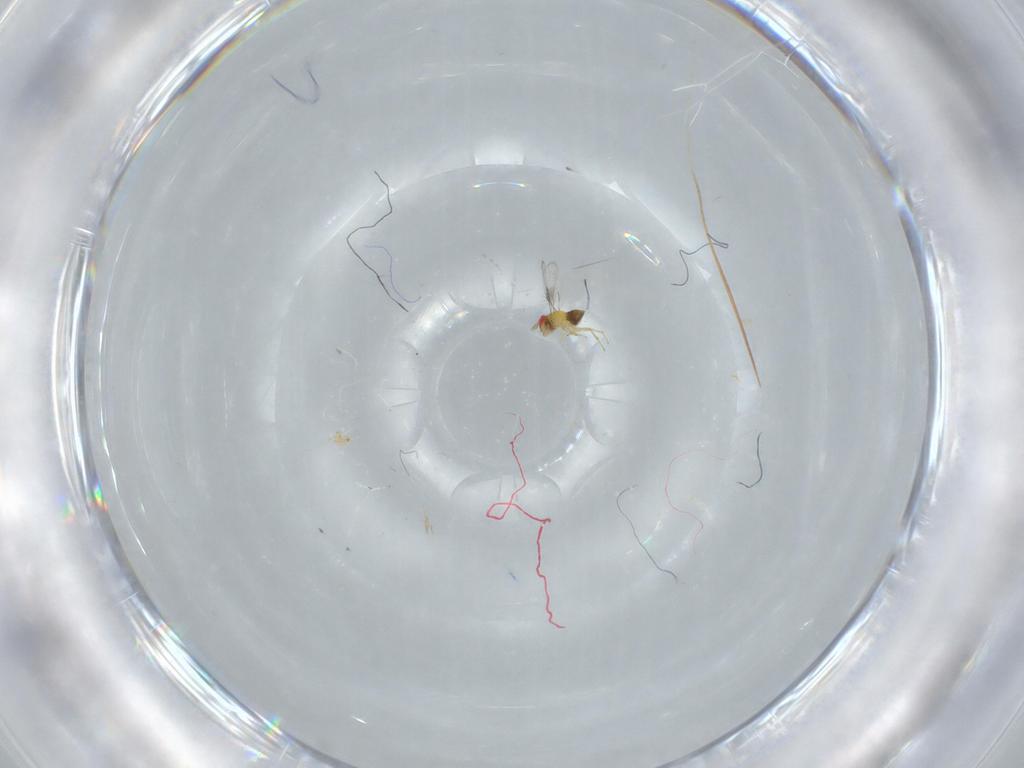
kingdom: Animalia
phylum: Arthropoda
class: Insecta
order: Hymenoptera
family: Trichogrammatidae
